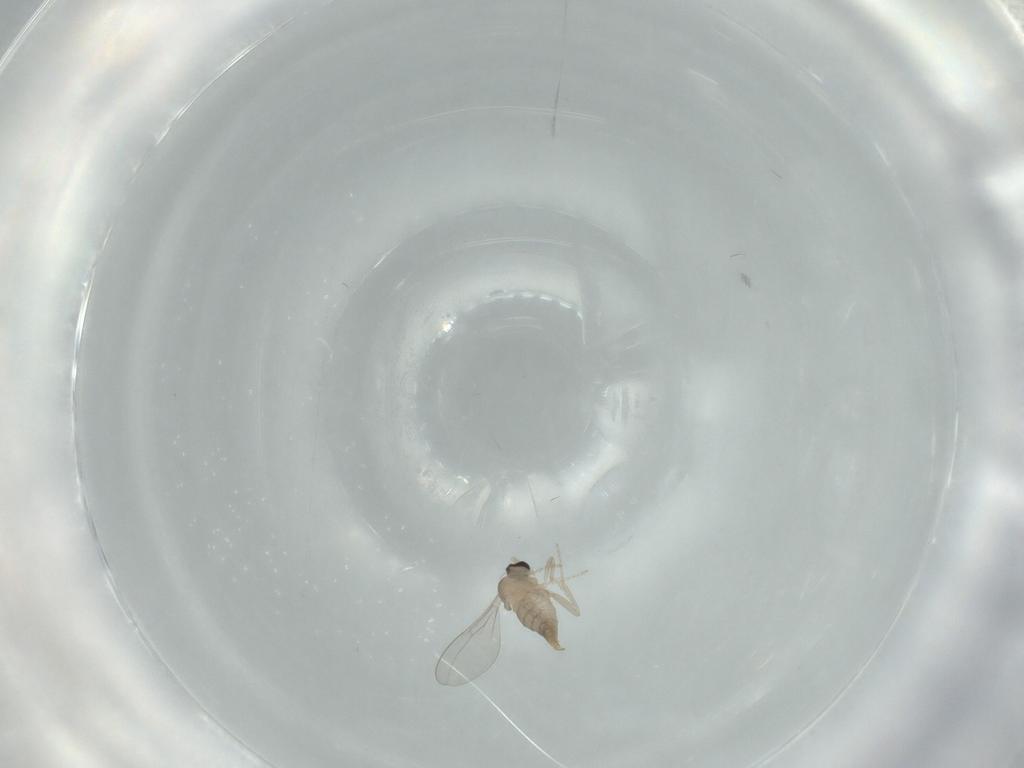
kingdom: Animalia
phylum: Arthropoda
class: Insecta
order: Diptera
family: Cecidomyiidae
